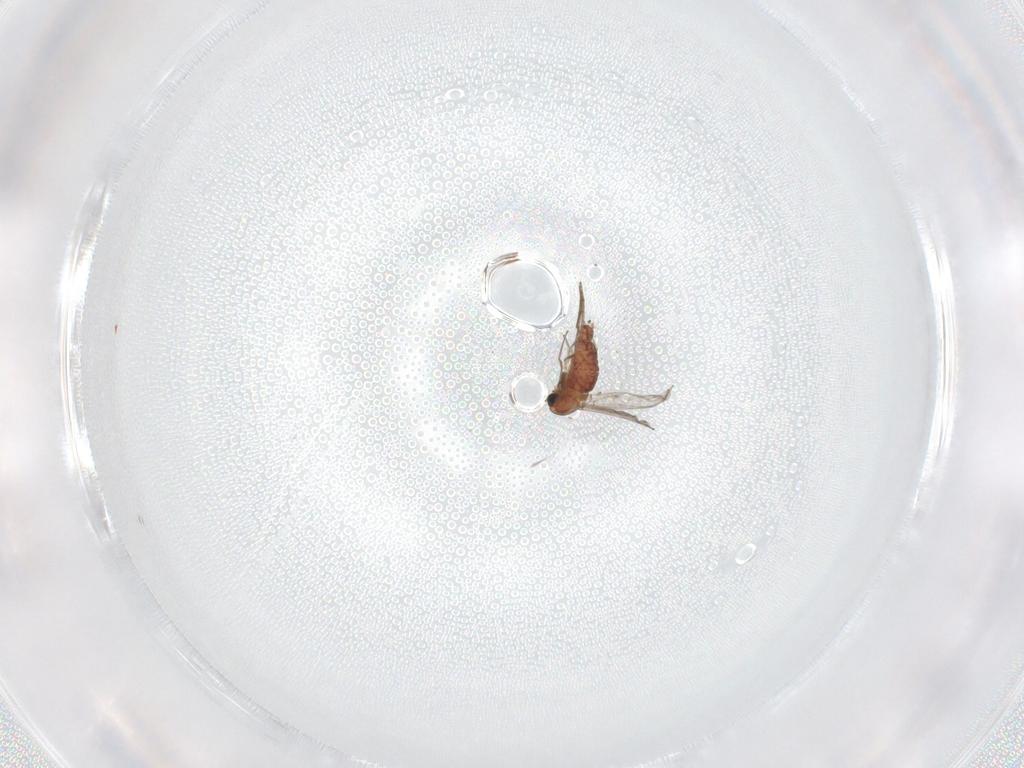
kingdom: Animalia
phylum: Arthropoda
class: Insecta
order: Diptera
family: Chironomidae
